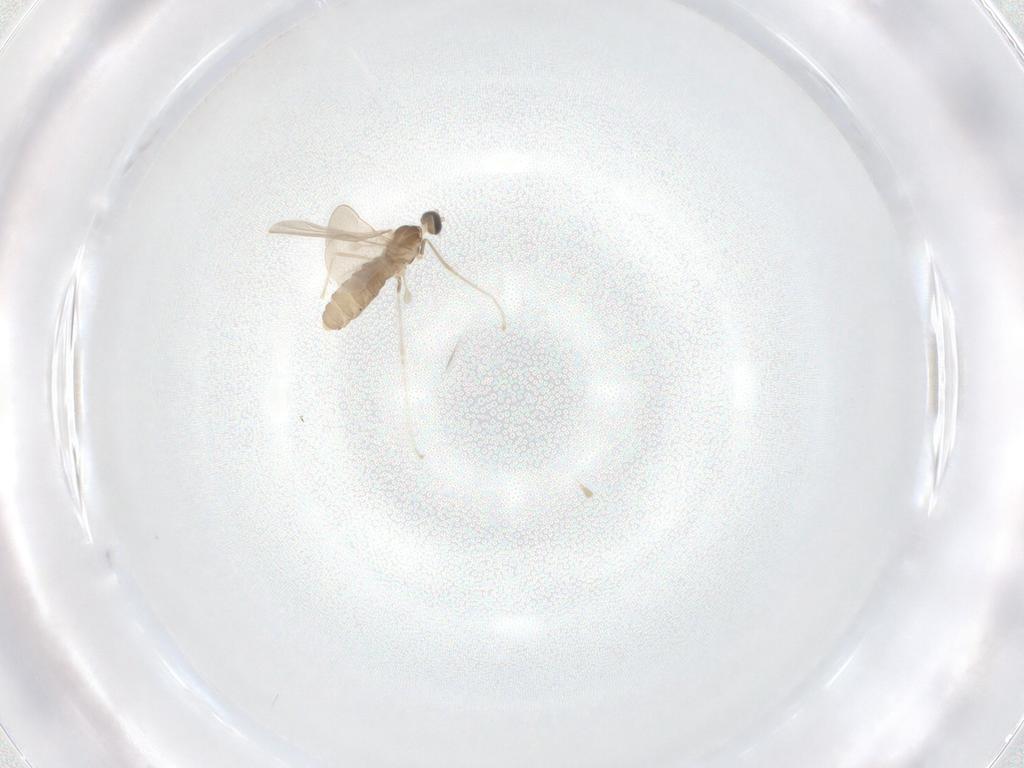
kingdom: Animalia
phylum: Arthropoda
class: Insecta
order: Diptera
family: Cecidomyiidae
